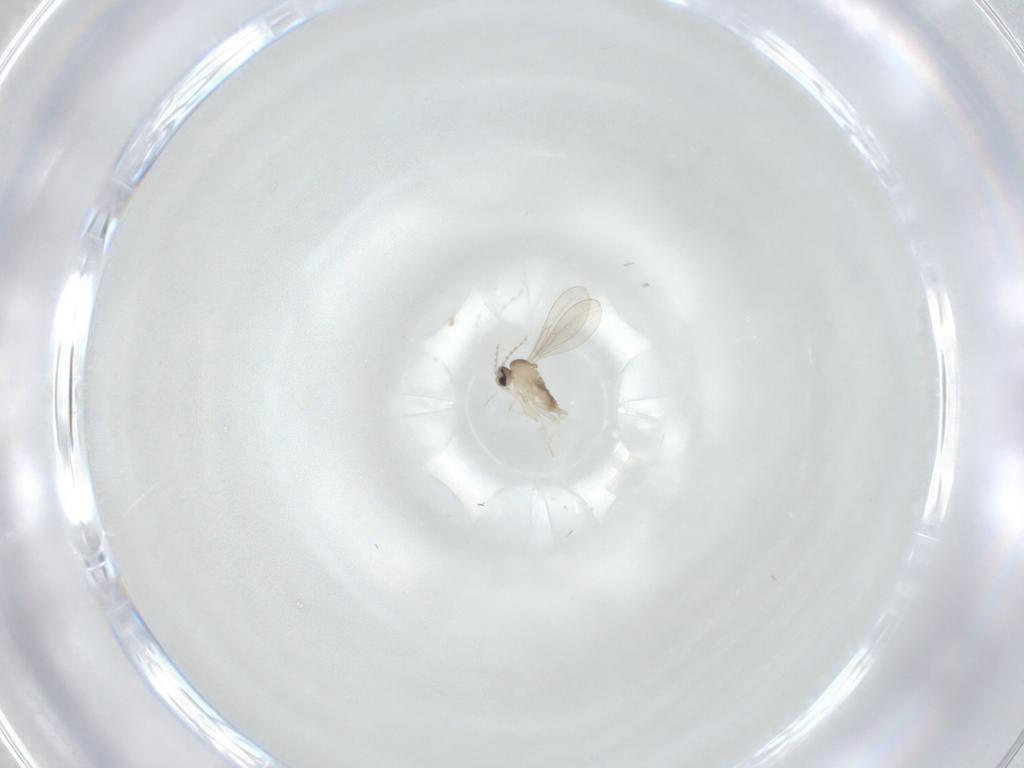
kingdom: Animalia
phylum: Arthropoda
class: Insecta
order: Diptera
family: Cecidomyiidae
